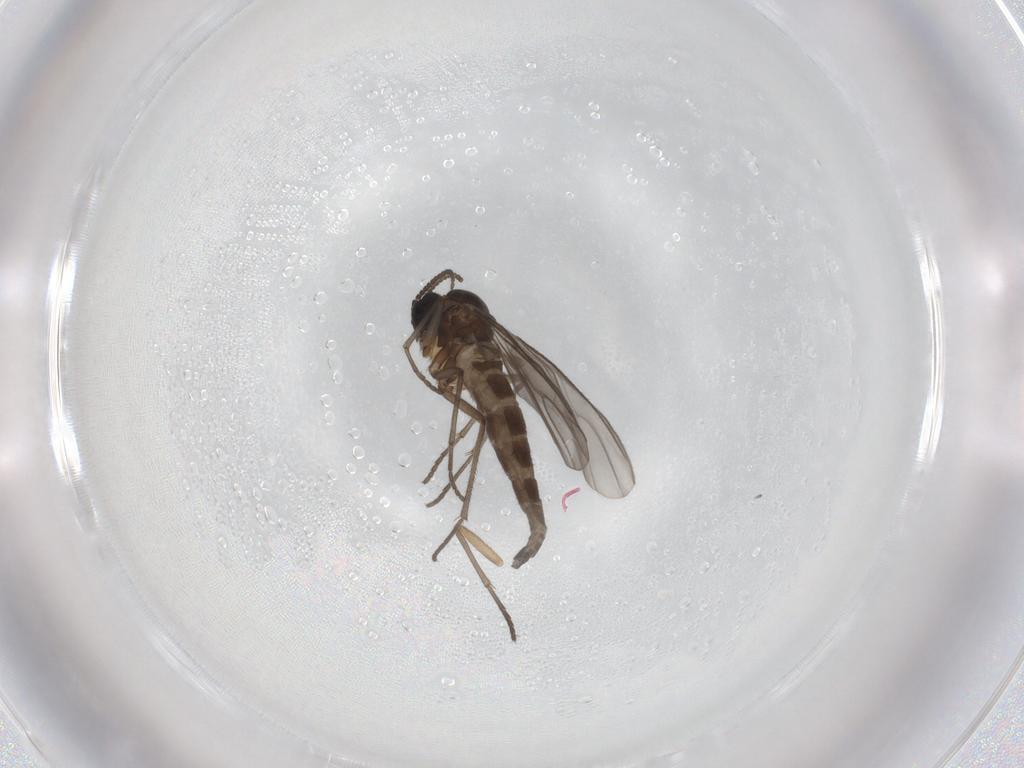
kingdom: Animalia
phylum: Arthropoda
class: Insecta
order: Diptera
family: Sciaridae
